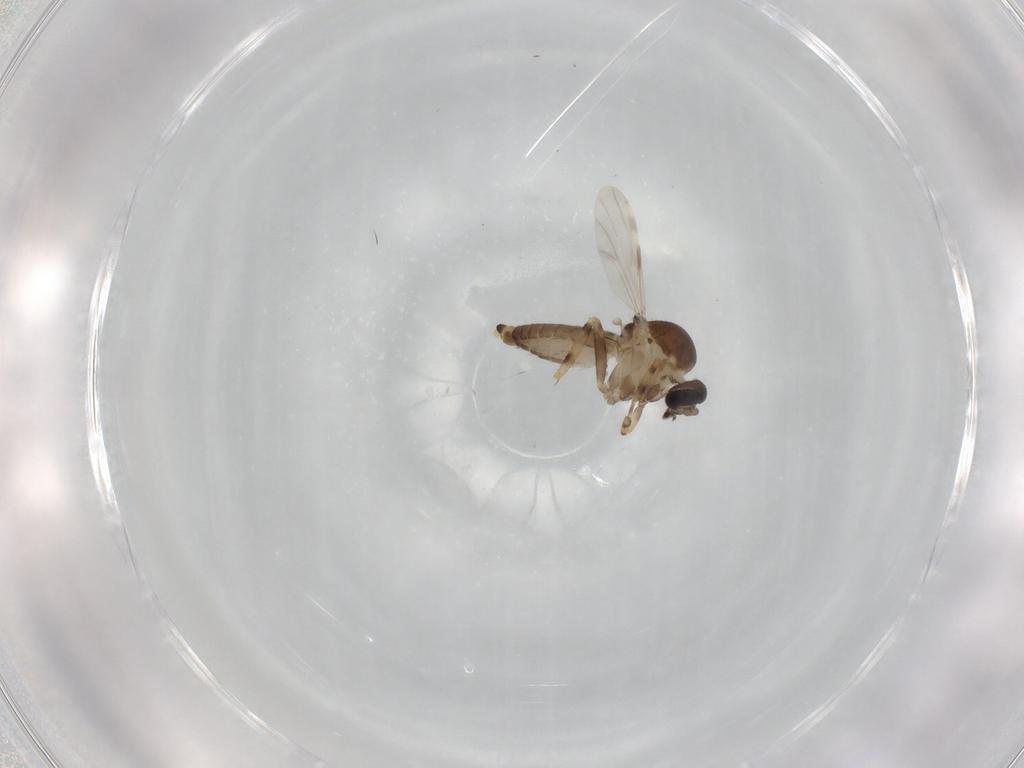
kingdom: Animalia
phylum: Arthropoda
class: Insecta
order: Diptera
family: Ceratopogonidae
